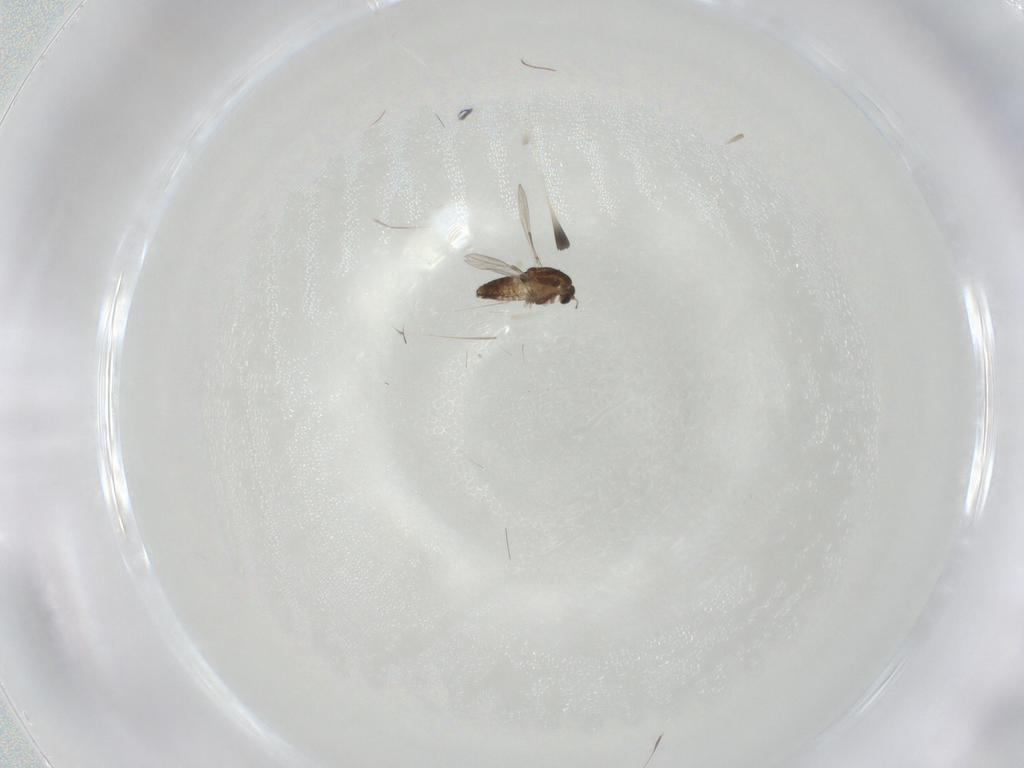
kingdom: Animalia
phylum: Arthropoda
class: Insecta
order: Diptera
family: Chironomidae
